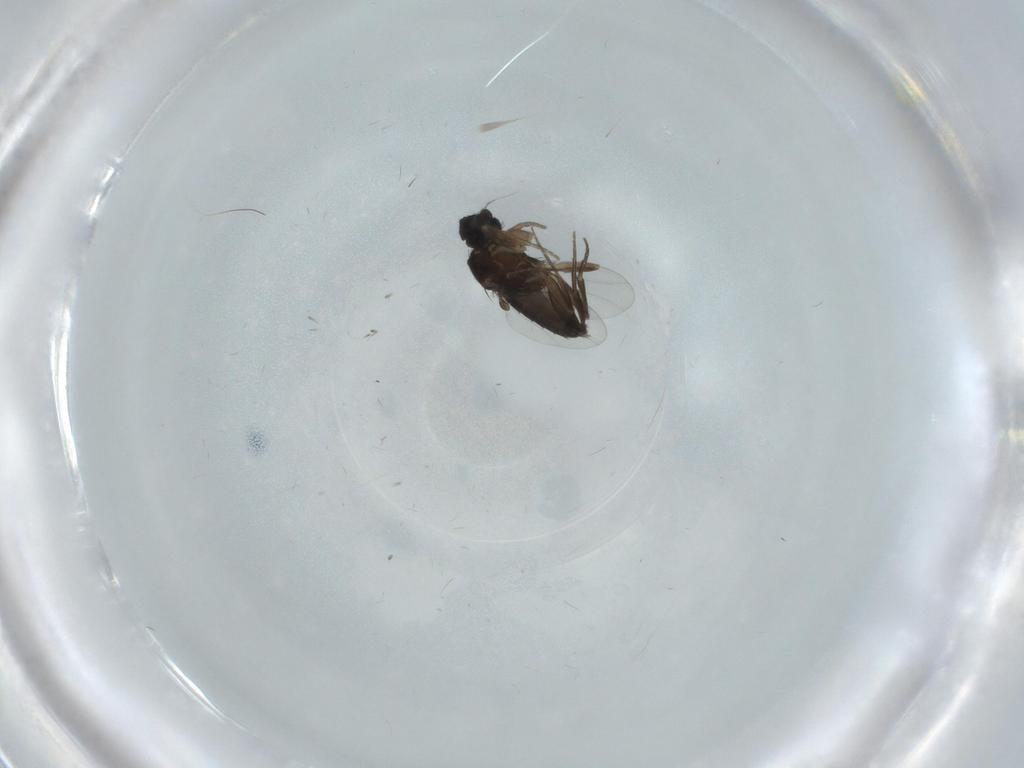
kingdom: Animalia
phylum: Arthropoda
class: Insecta
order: Diptera
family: Phoridae
